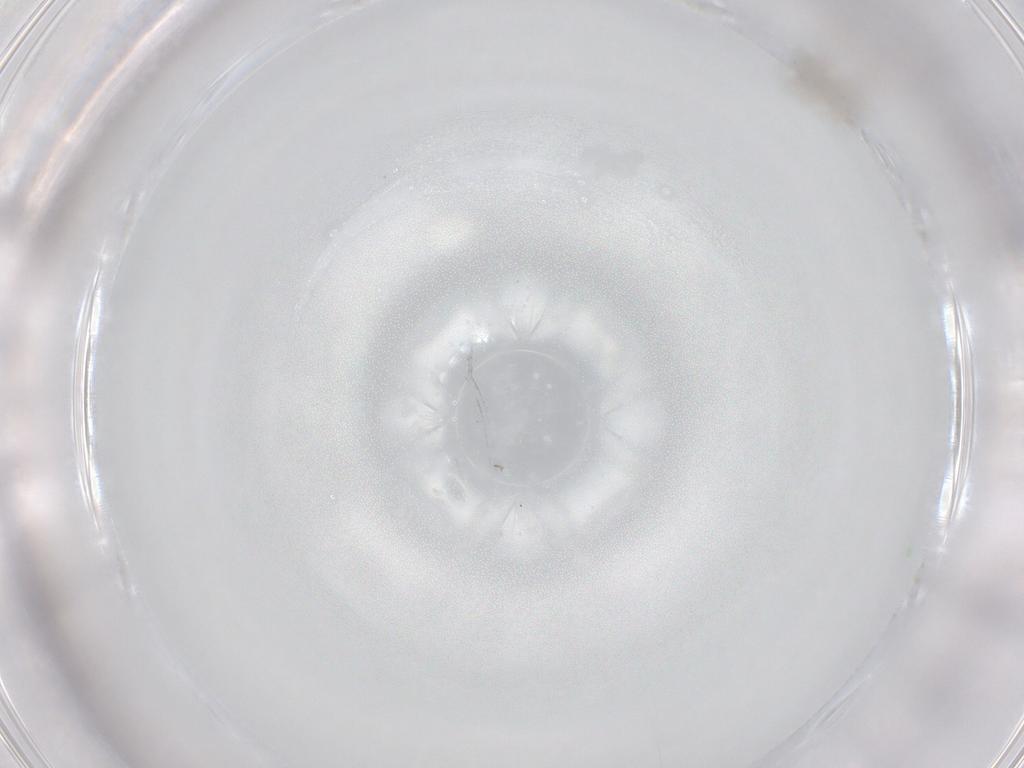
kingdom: Animalia
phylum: Arthropoda
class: Insecta
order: Diptera
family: Cecidomyiidae
